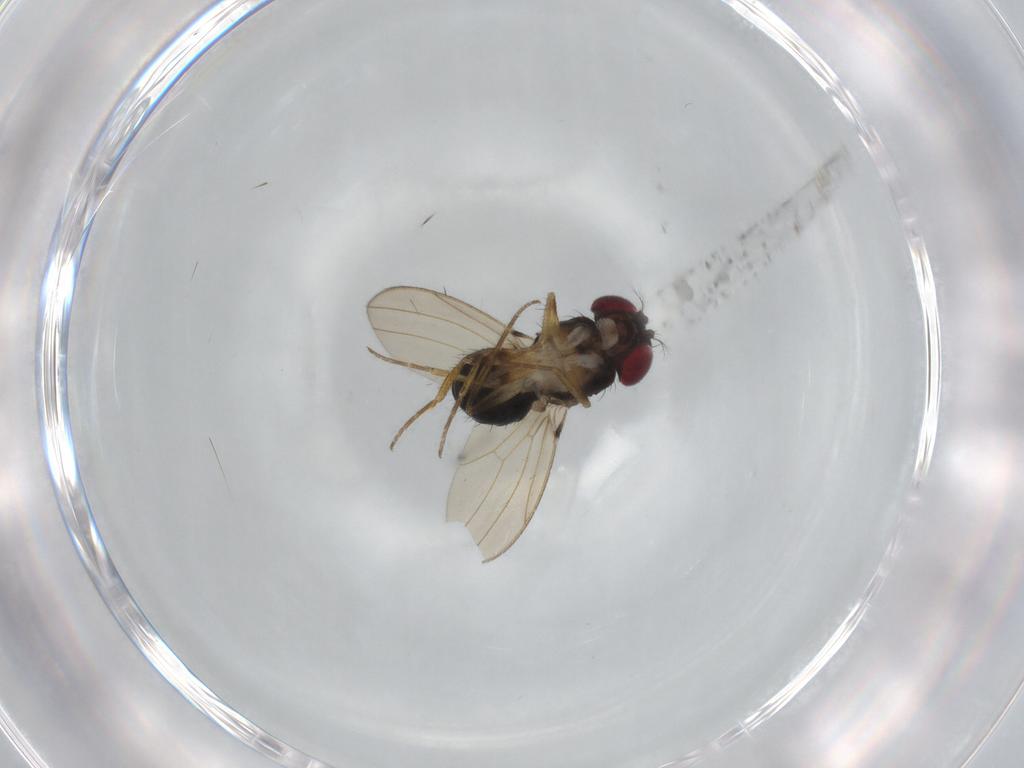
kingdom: Animalia
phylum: Arthropoda
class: Insecta
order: Diptera
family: Drosophilidae
